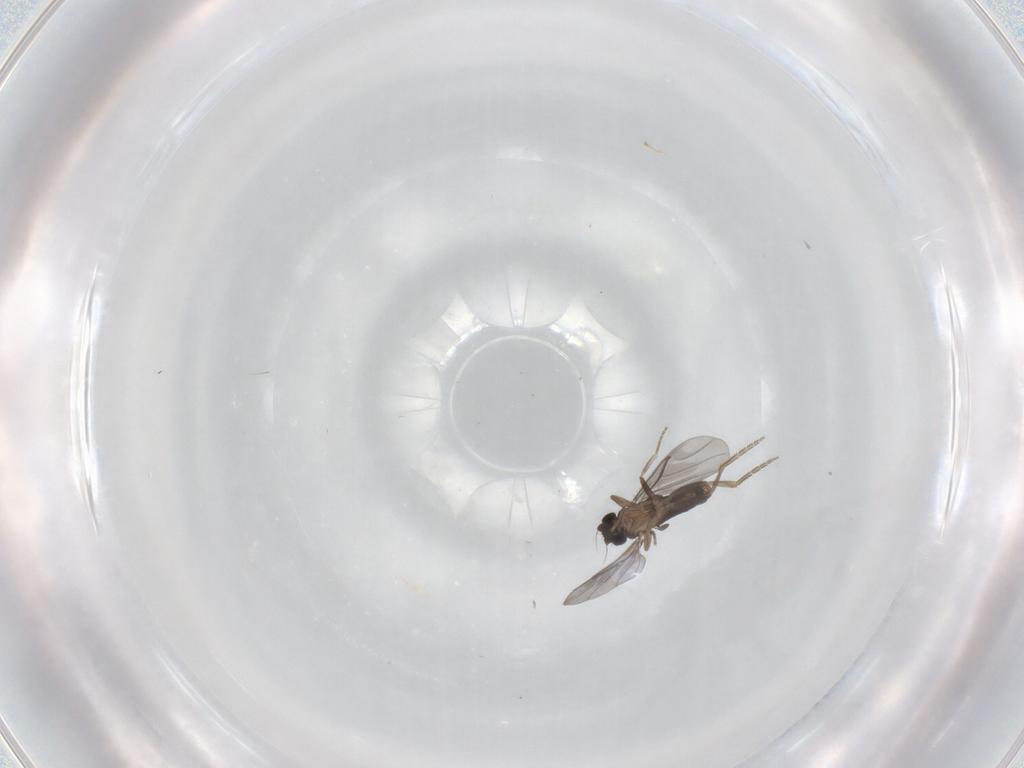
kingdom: Animalia
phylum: Arthropoda
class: Insecta
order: Diptera
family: Cecidomyiidae
